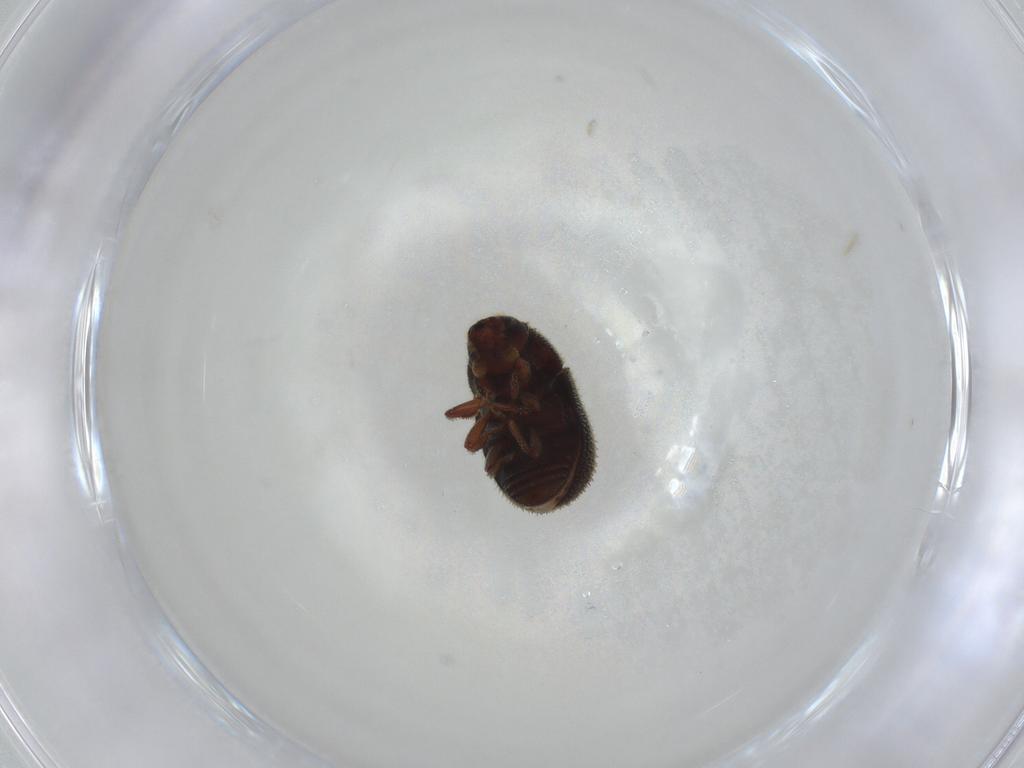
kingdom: Animalia
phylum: Arthropoda
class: Insecta
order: Coleoptera
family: Curculionidae
